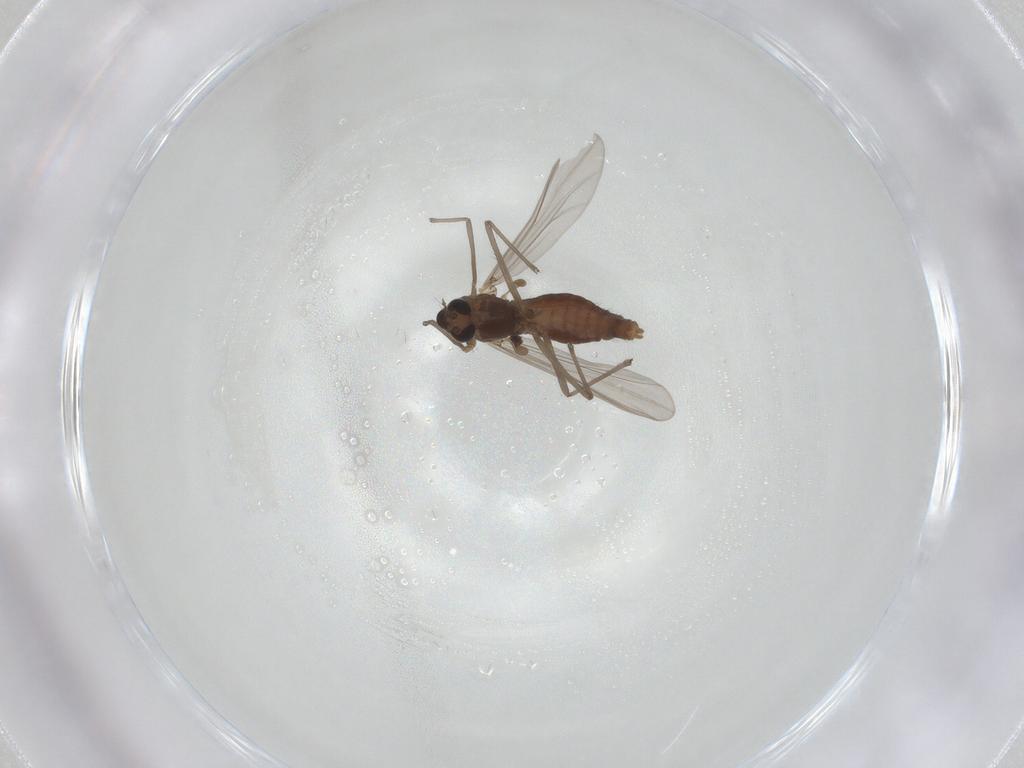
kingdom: Animalia
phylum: Arthropoda
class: Insecta
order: Diptera
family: Chironomidae
